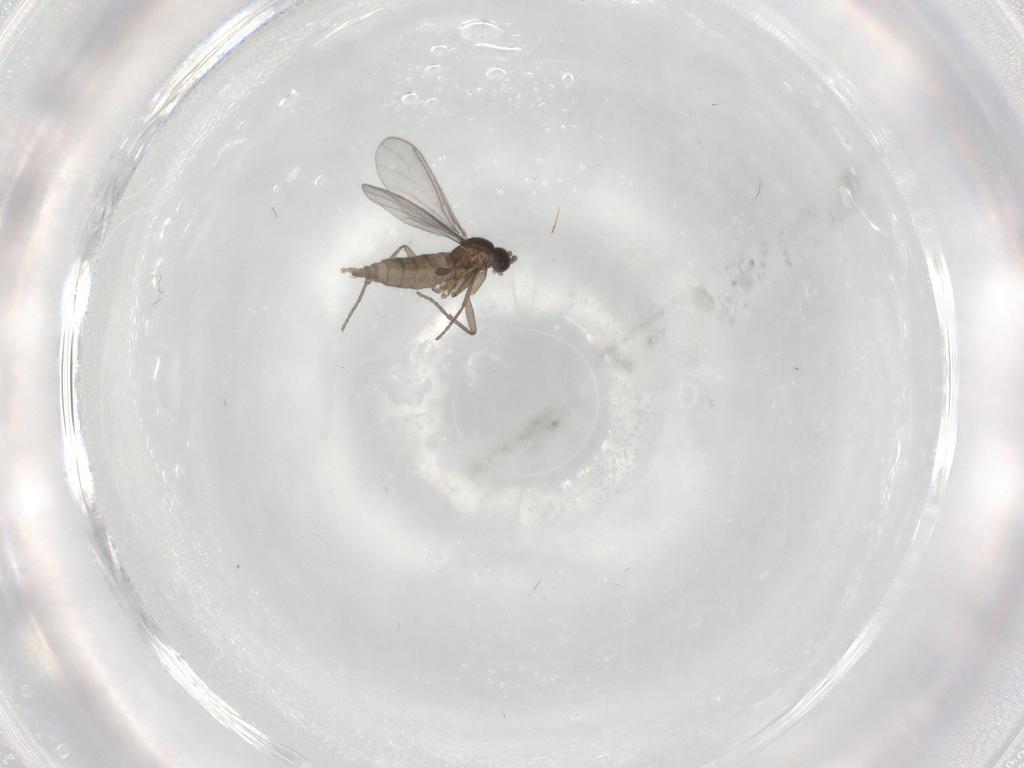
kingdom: Animalia
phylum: Arthropoda
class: Insecta
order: Diptera
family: Sciaridae
